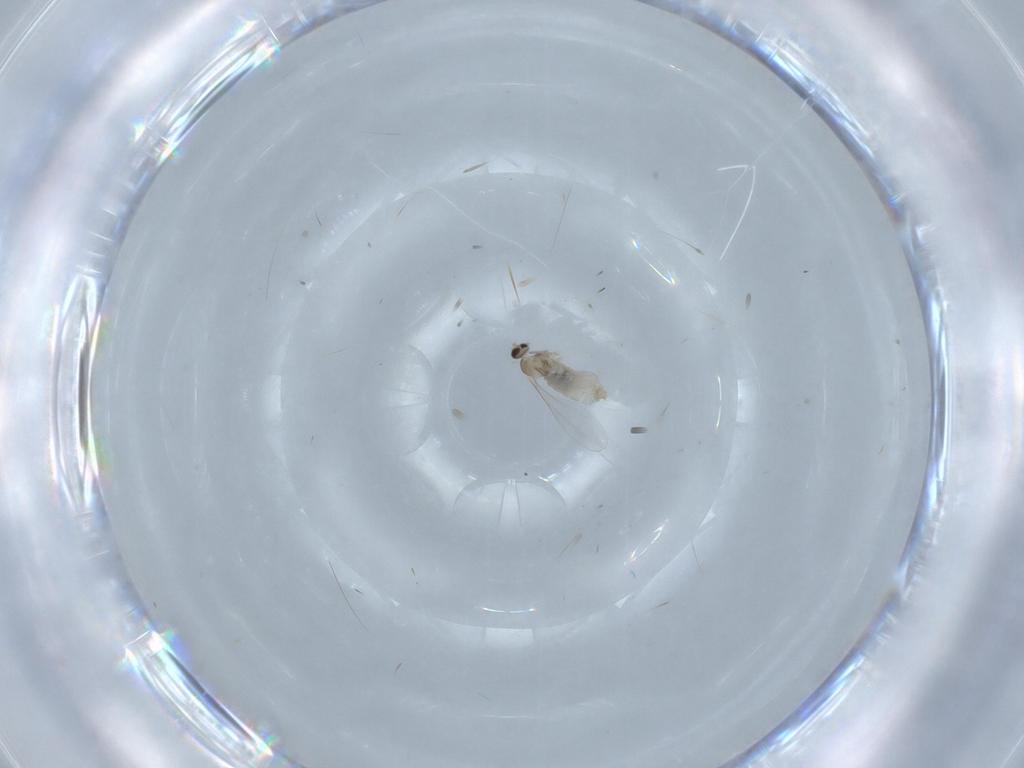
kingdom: Animalia
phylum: Arthropoda
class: Insecta
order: Diptera
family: Cecidomyiidae
